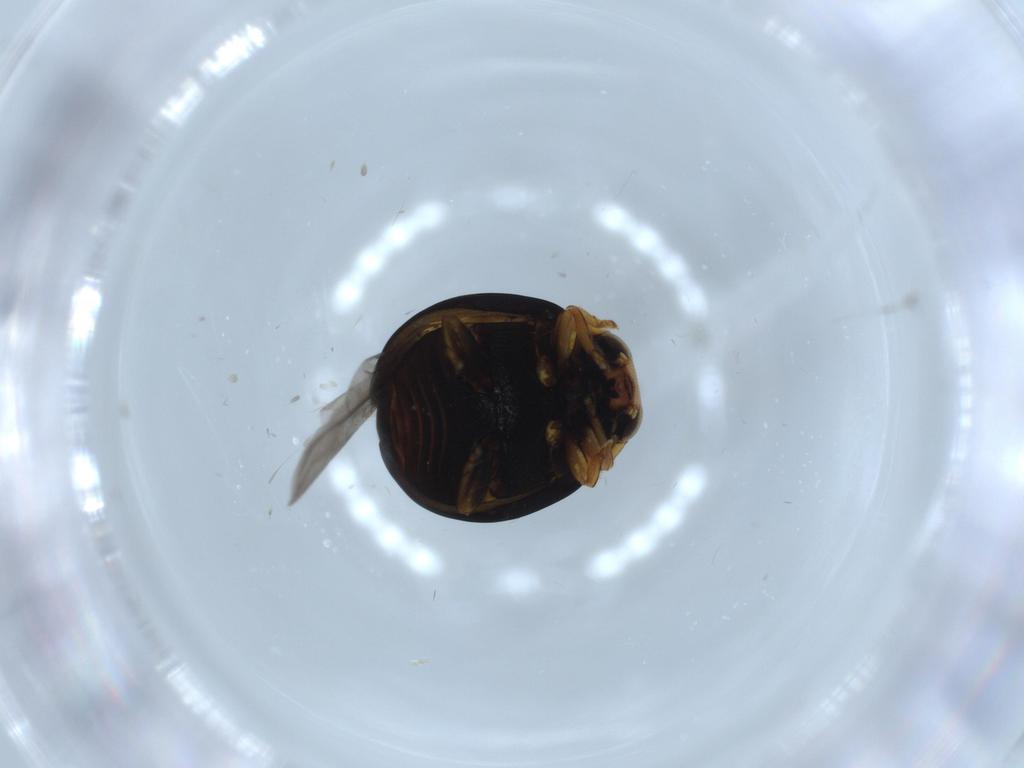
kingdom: Animalia
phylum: Arthropoda
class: Insecta
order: Coleoptera
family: Coccinellidae
